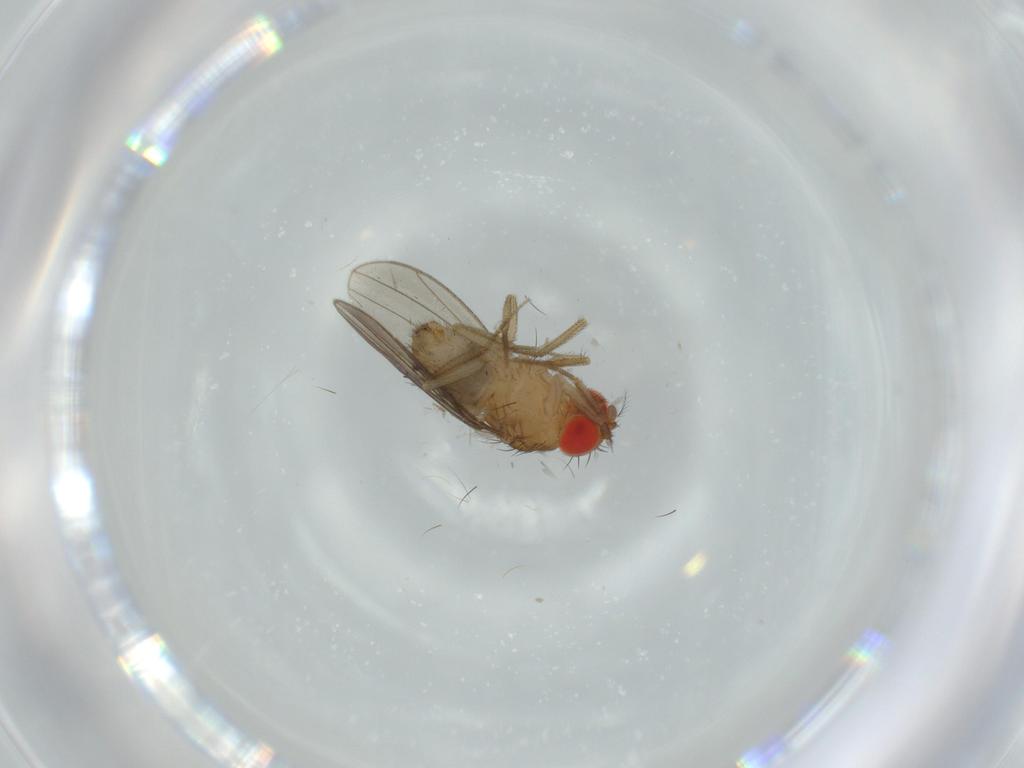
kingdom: Animalia
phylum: Arthropoda
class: Insecta
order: Diptera
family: Drosophilidae
